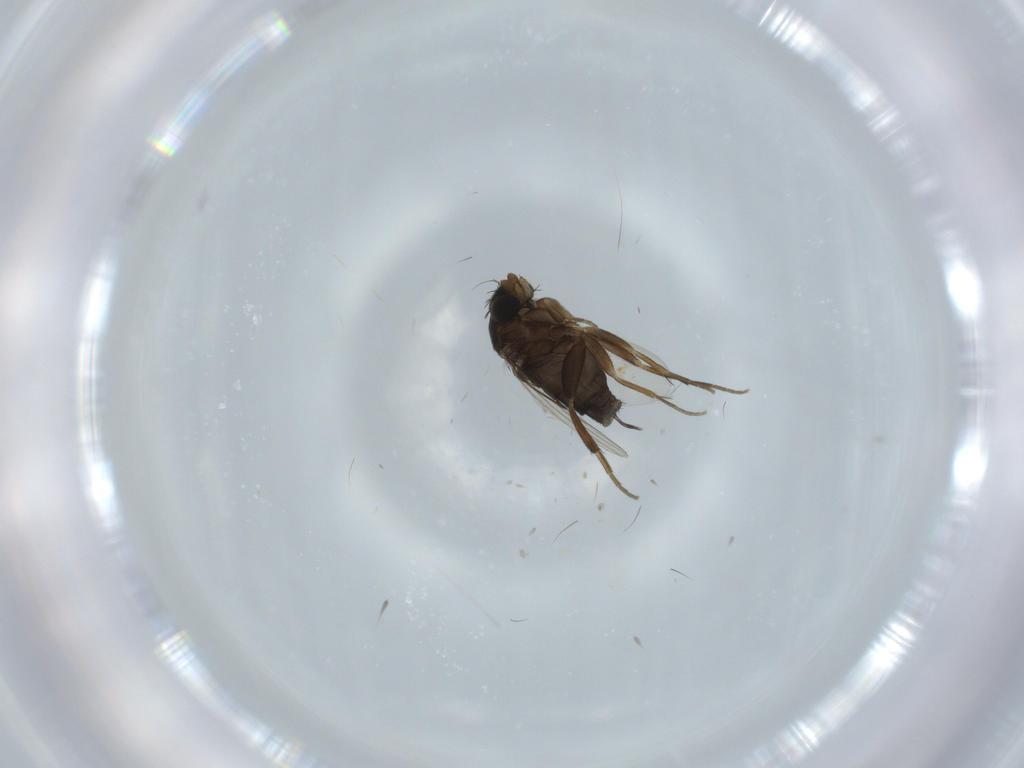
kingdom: Animalia
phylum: Arthropoda
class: Insecta
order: Diptera
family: Phoridae
